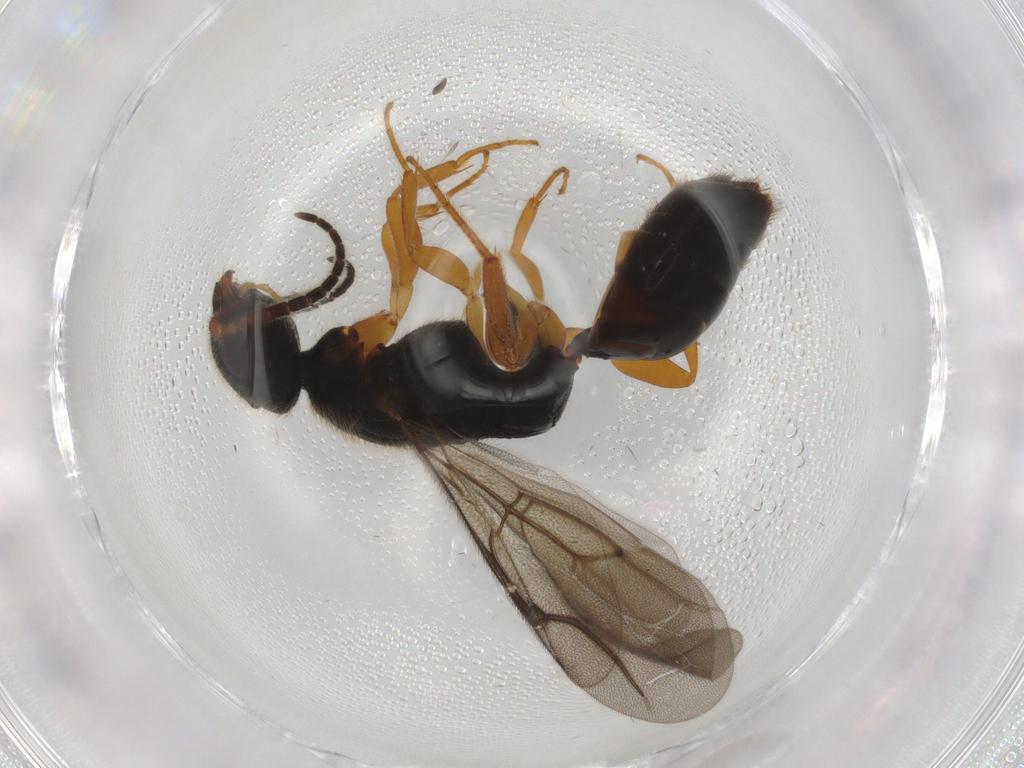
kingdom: Animalia
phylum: Arthropoda
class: Insecta
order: Hymenoptera
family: Bethylidae
